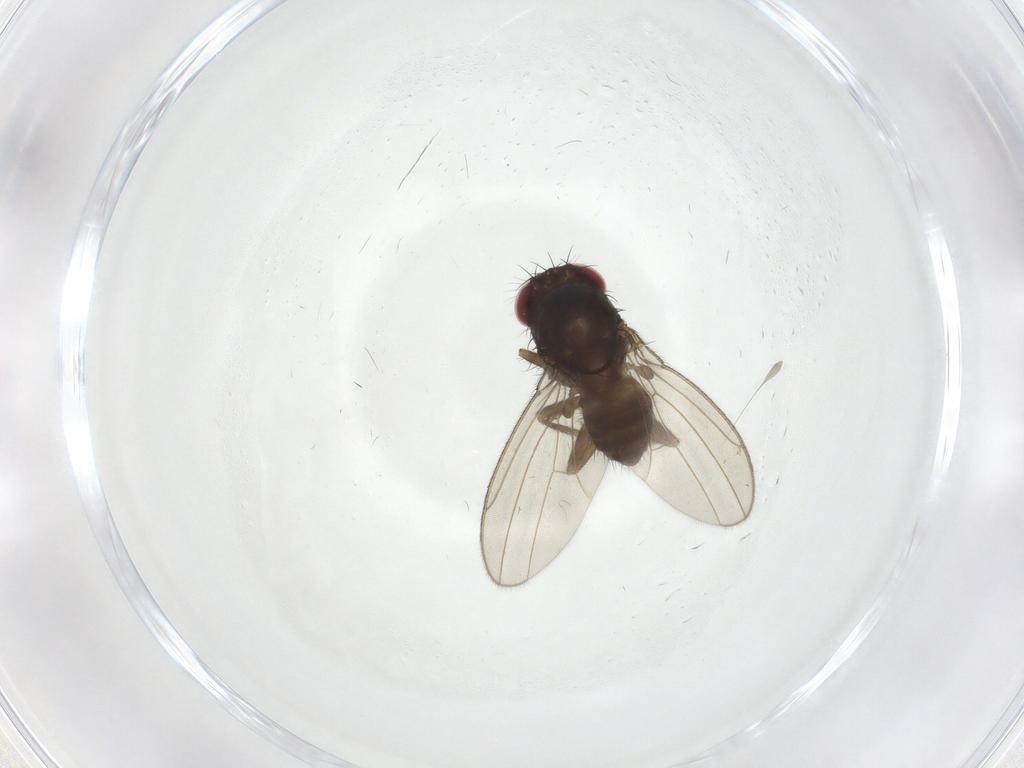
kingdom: Animalia
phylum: Arthropoda
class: Insecta
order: Diptera
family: Drosophilidae
